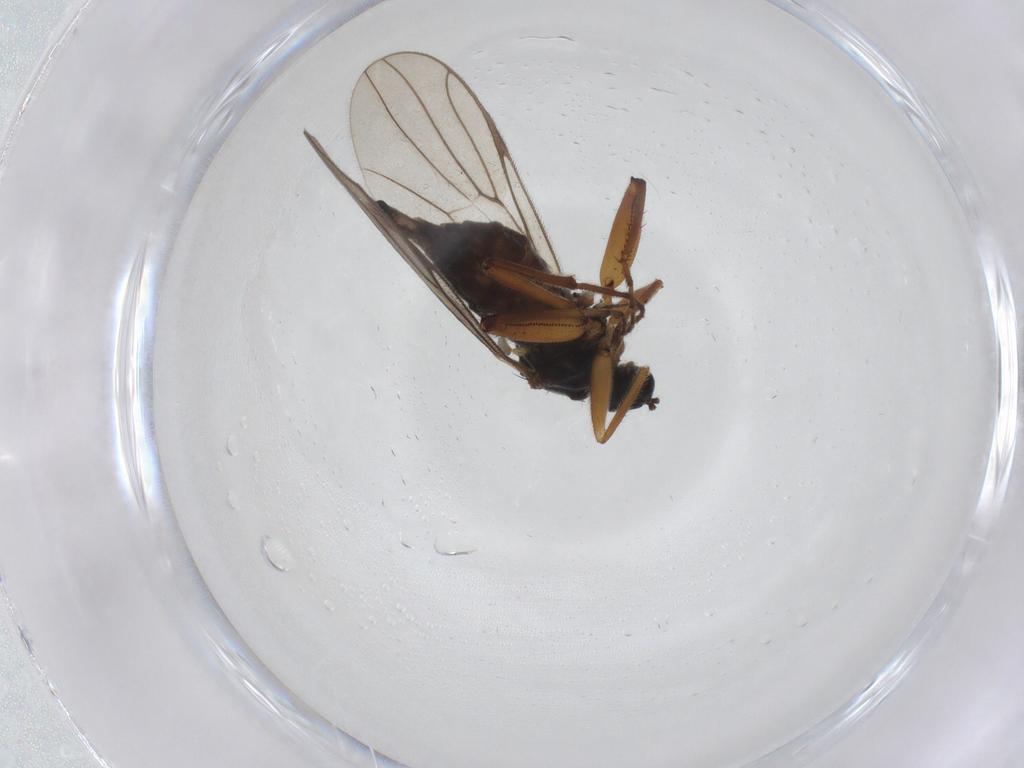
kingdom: Animalia
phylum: Arthropoda
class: Insecta
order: Diptera
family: Hybotidae
